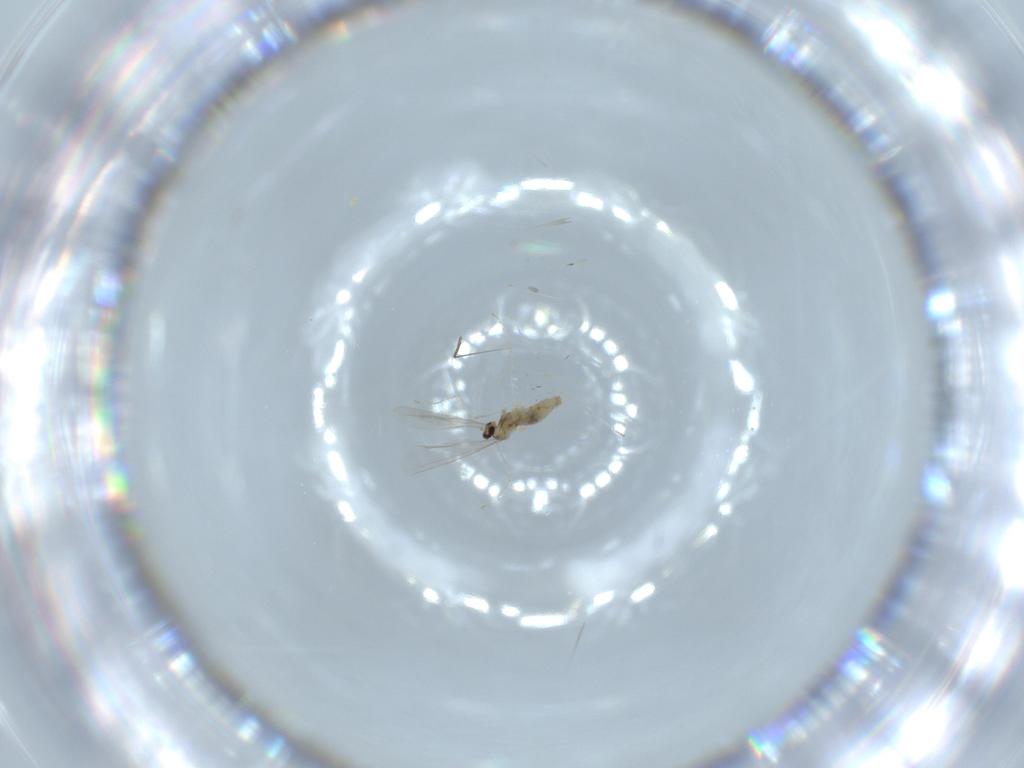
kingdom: Animalia
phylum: Arthropoda
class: Insecta
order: Diptera
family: Cecidomyiidae
